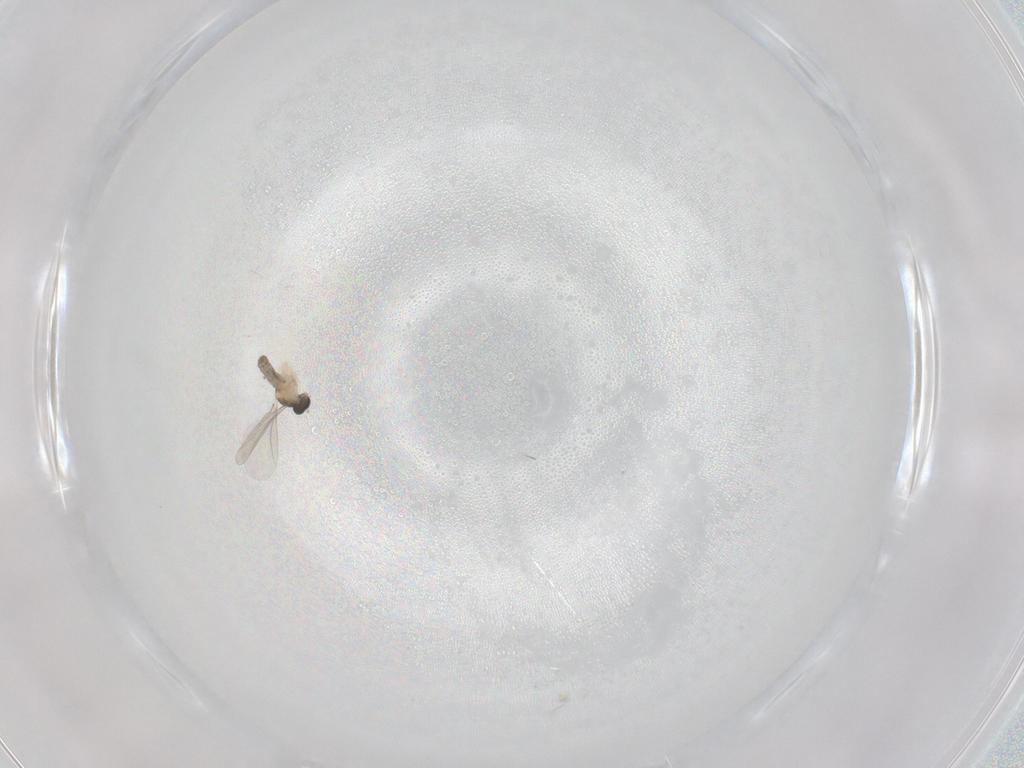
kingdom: Animalia
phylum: Arthropoda
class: Insecta
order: Diptera
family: Cecidomyiidae
